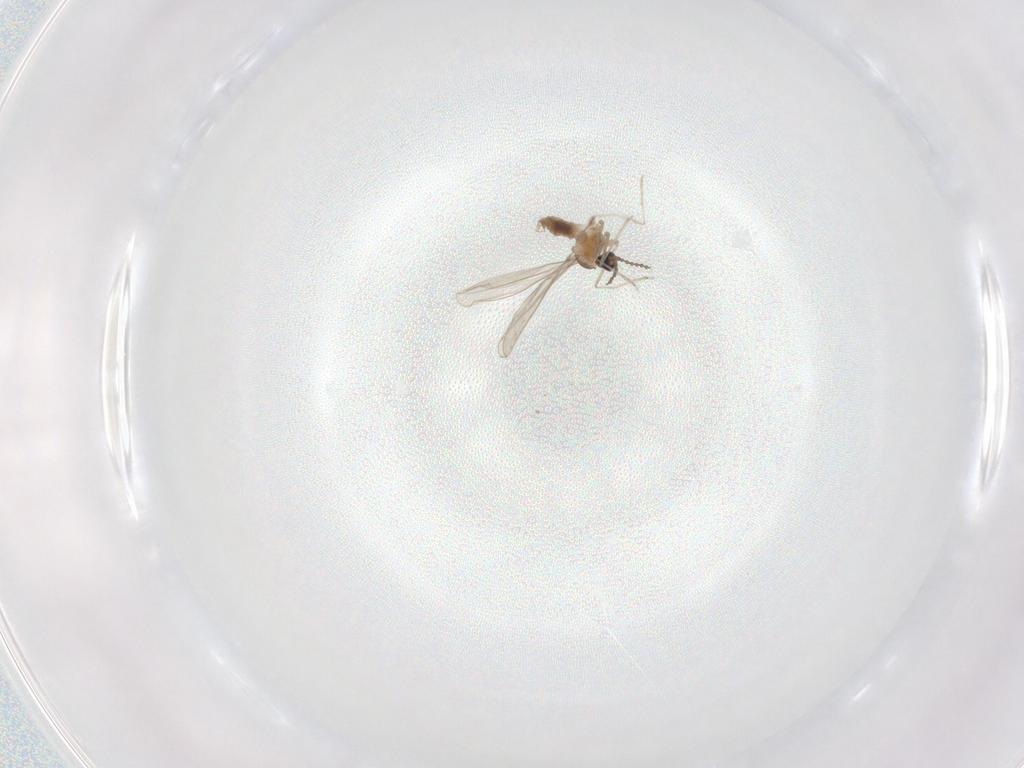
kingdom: Animalia
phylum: Arthropoda
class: Insecta
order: Diptera
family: Cecidomyiidae
